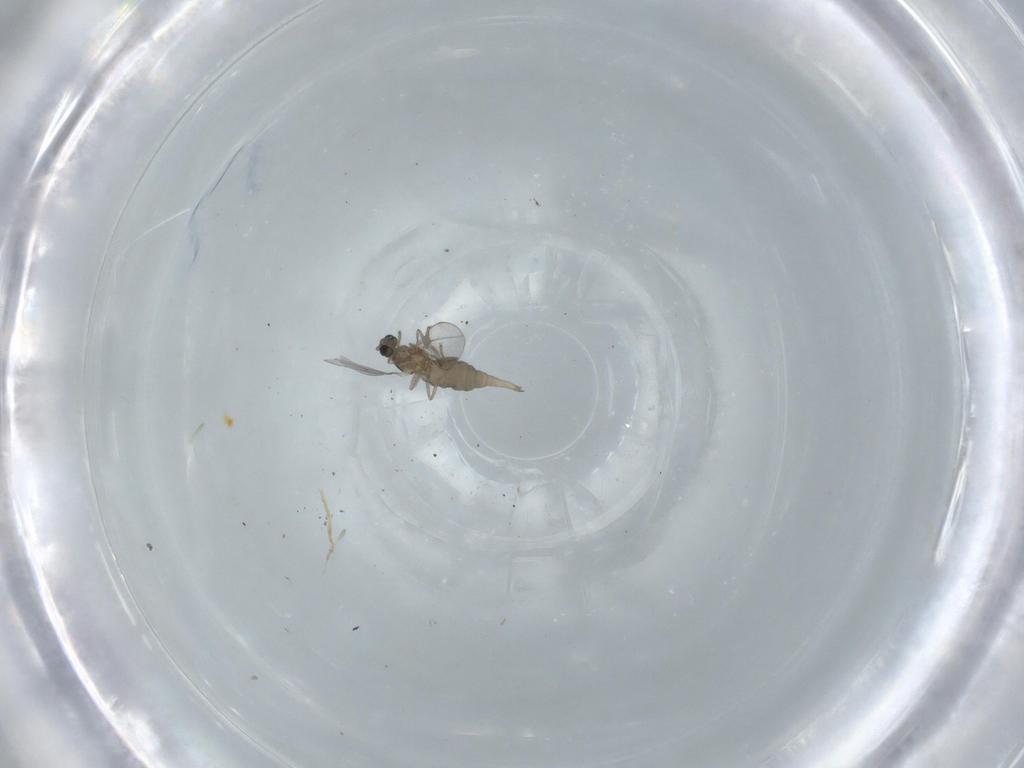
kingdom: Animalia
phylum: Arthropoda
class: Insecta
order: Diptera
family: Cecidomyiidae
